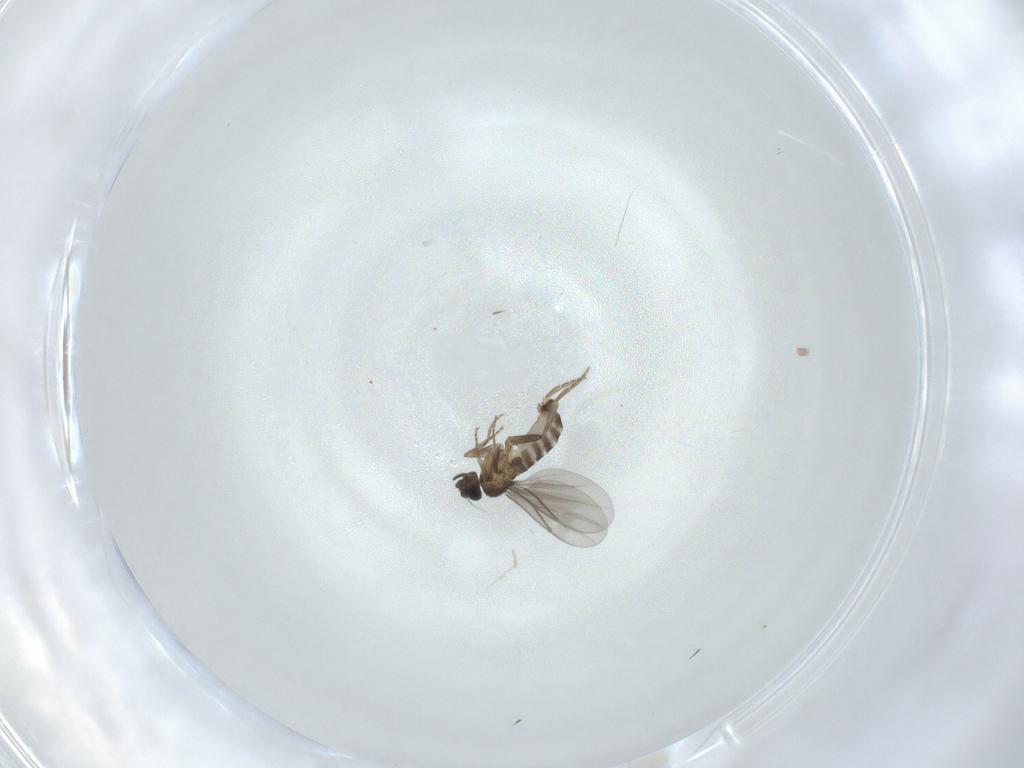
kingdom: Animalia
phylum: Arthropoda
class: Insecta
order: Diptera
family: Phoridae
